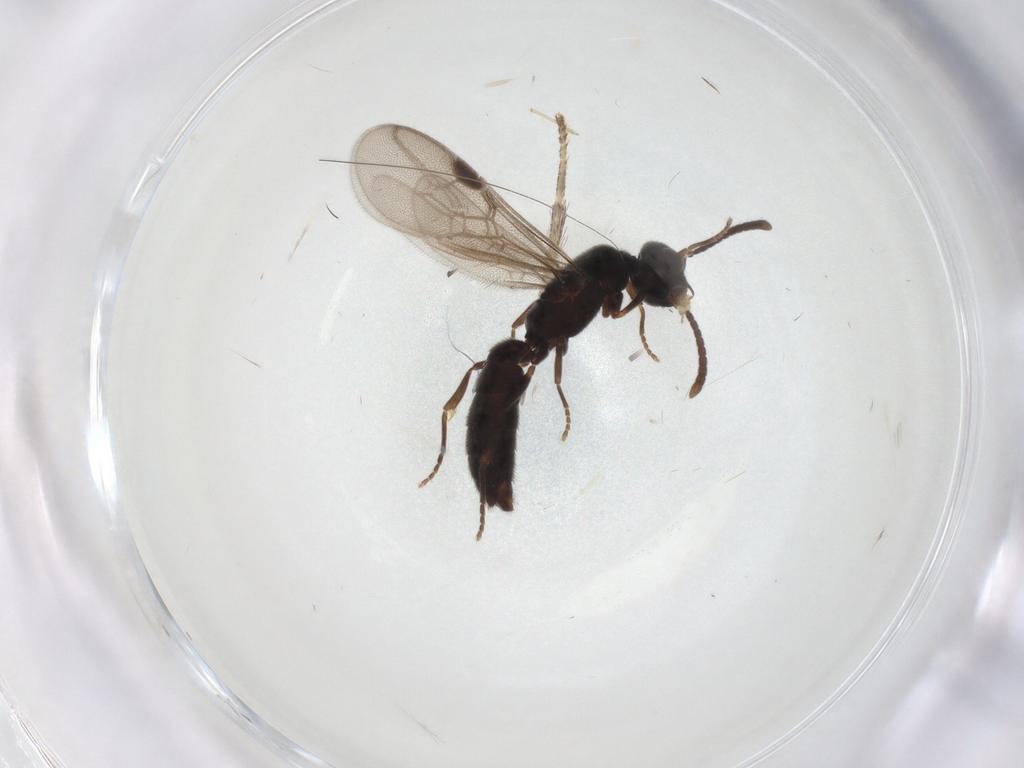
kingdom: Animalia
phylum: Arthropoda
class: Insecta
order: Hymenoptera
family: Formicidae
